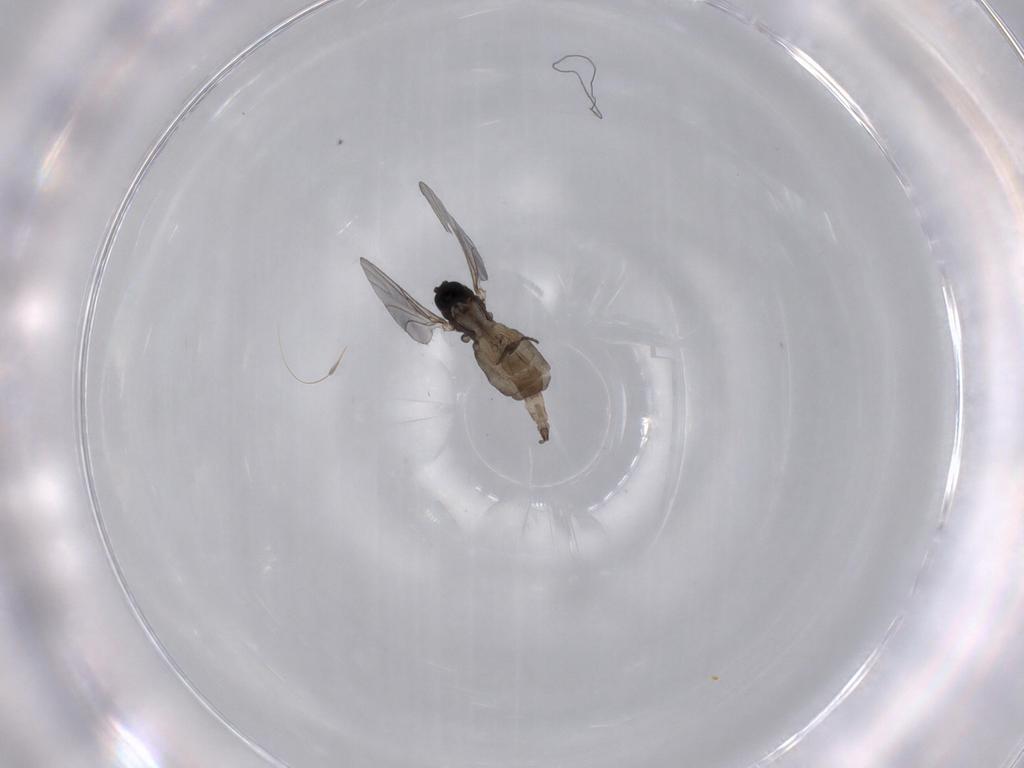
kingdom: Animalia
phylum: Arthropoda
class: Insecta
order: Diptera
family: Sciaridae
